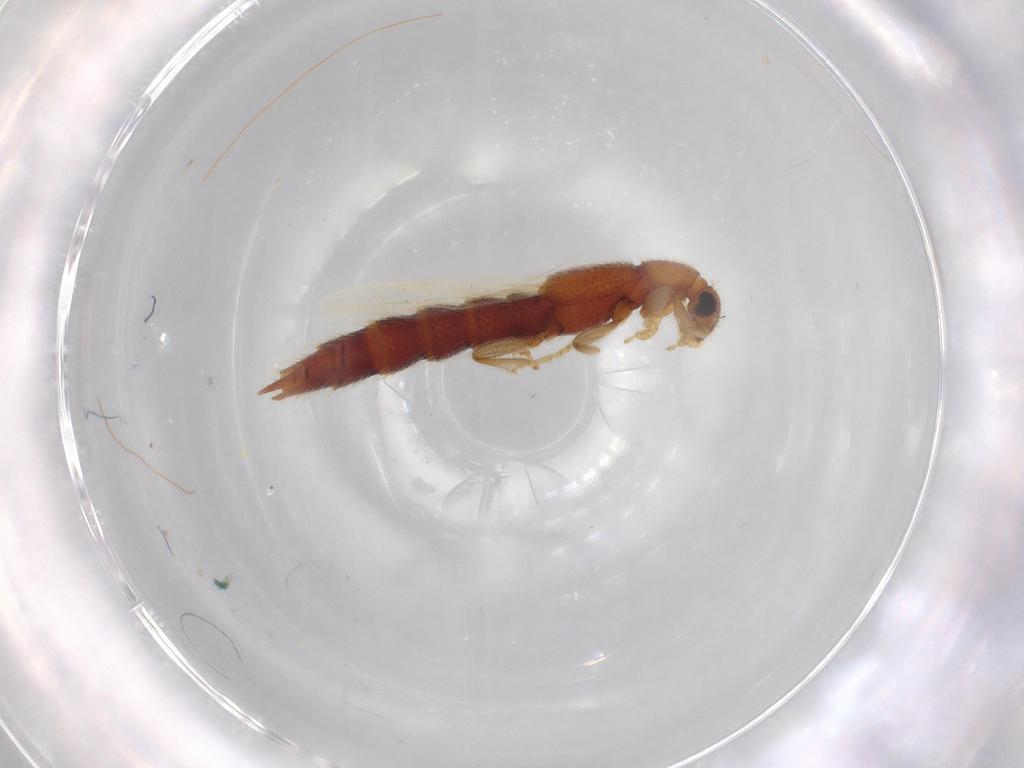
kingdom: Animalia
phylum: Arthropoda
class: Insecta
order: Coleoptera
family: Staphylinidae
